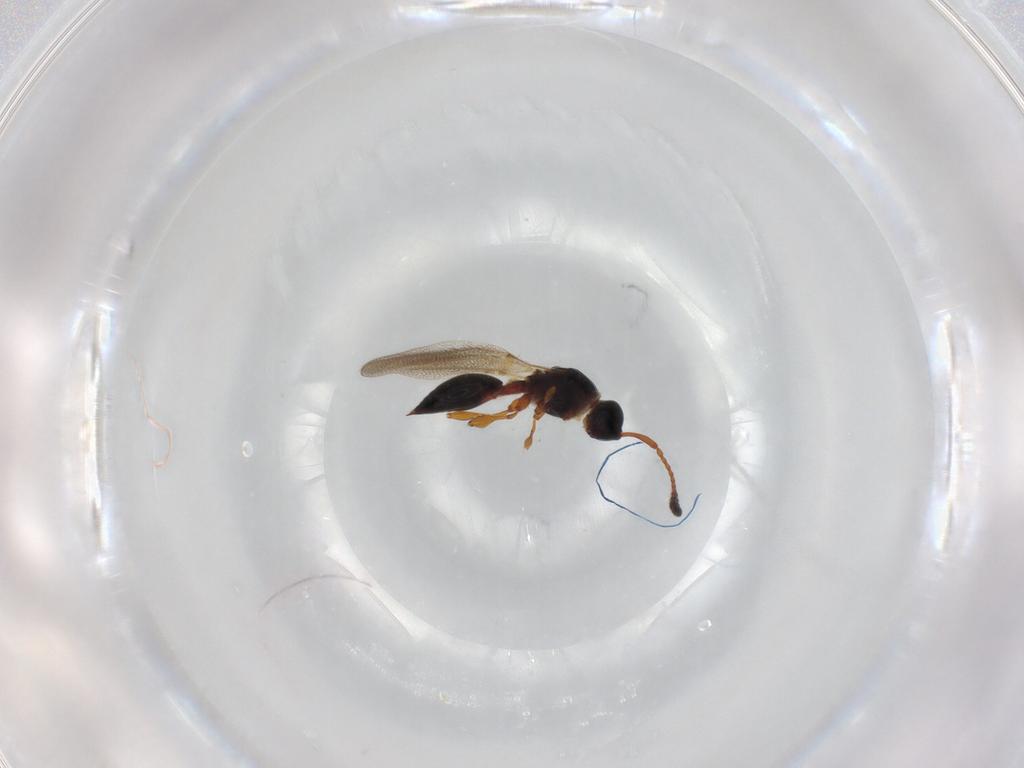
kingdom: Animalia
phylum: Arthropoda
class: Insecta
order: Hymenoptera
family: Diapriidae
